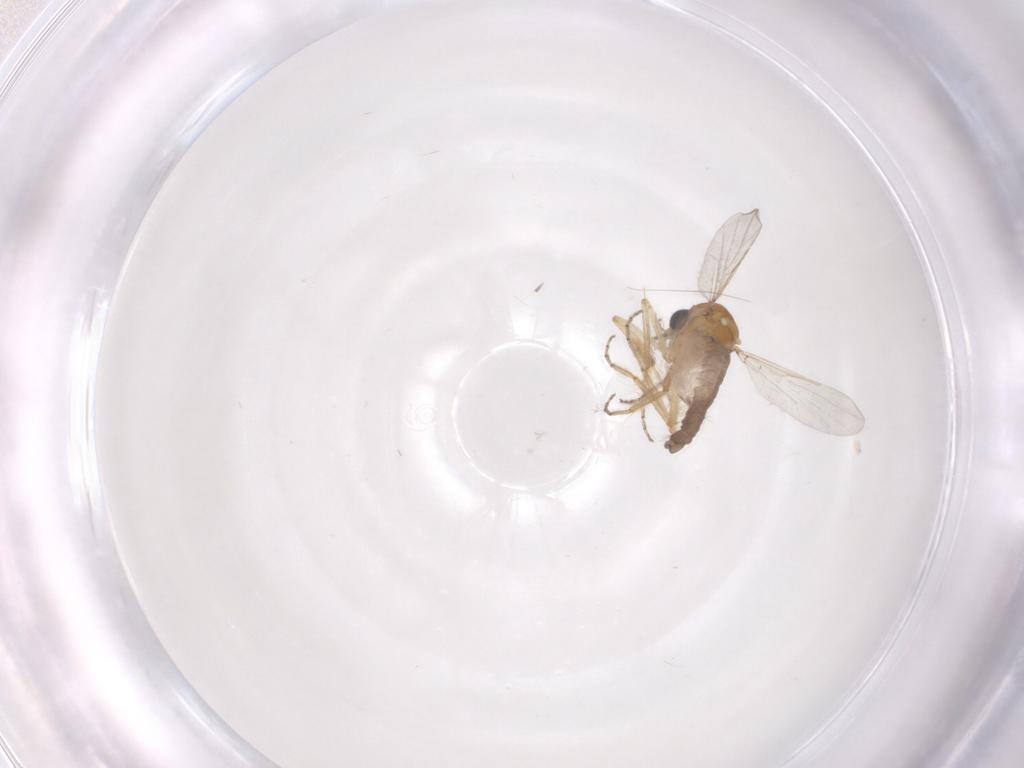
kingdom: Animalia
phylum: Arthropoda
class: Insecta
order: Diptera
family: Ceratopogonidae
